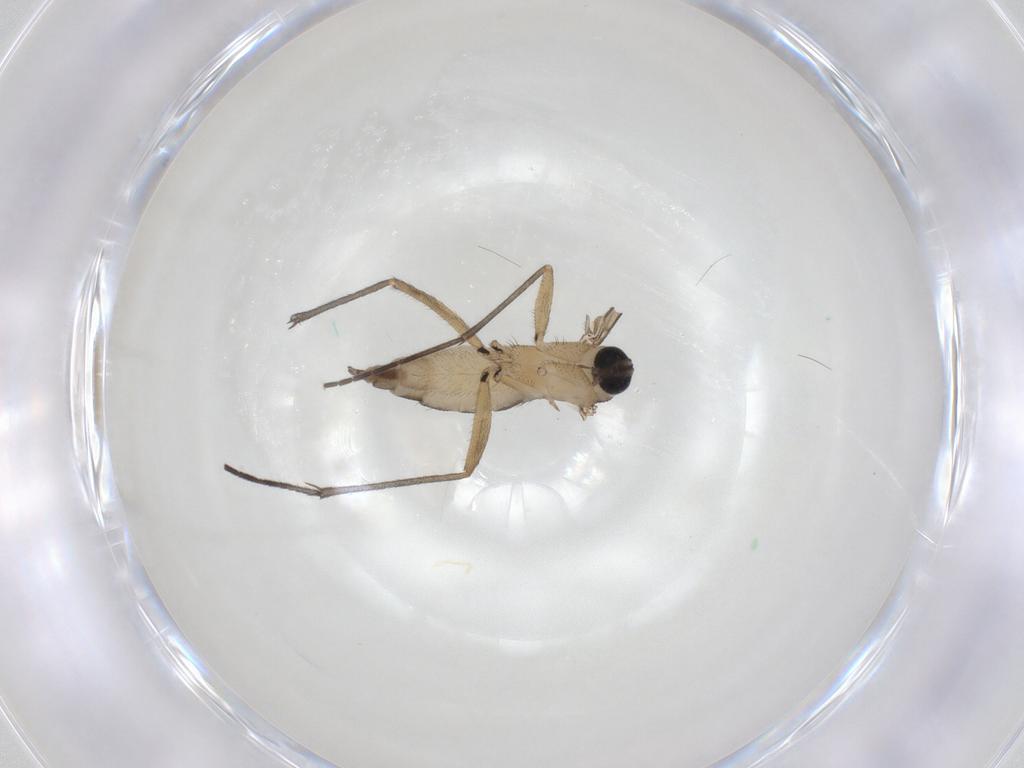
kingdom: Animalia
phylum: Arthropoda
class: Insecta
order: Diptera
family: Sciaridae
